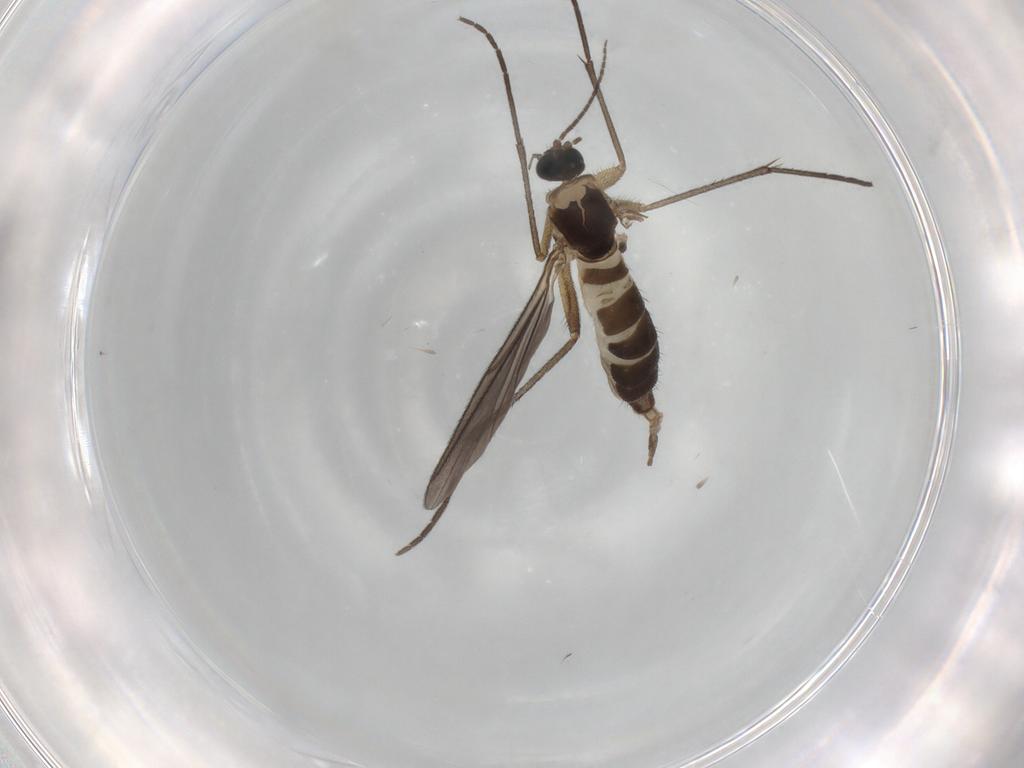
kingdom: Animalia
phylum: Arthropoda
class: Insecta
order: Diptera
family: Sciaridae
